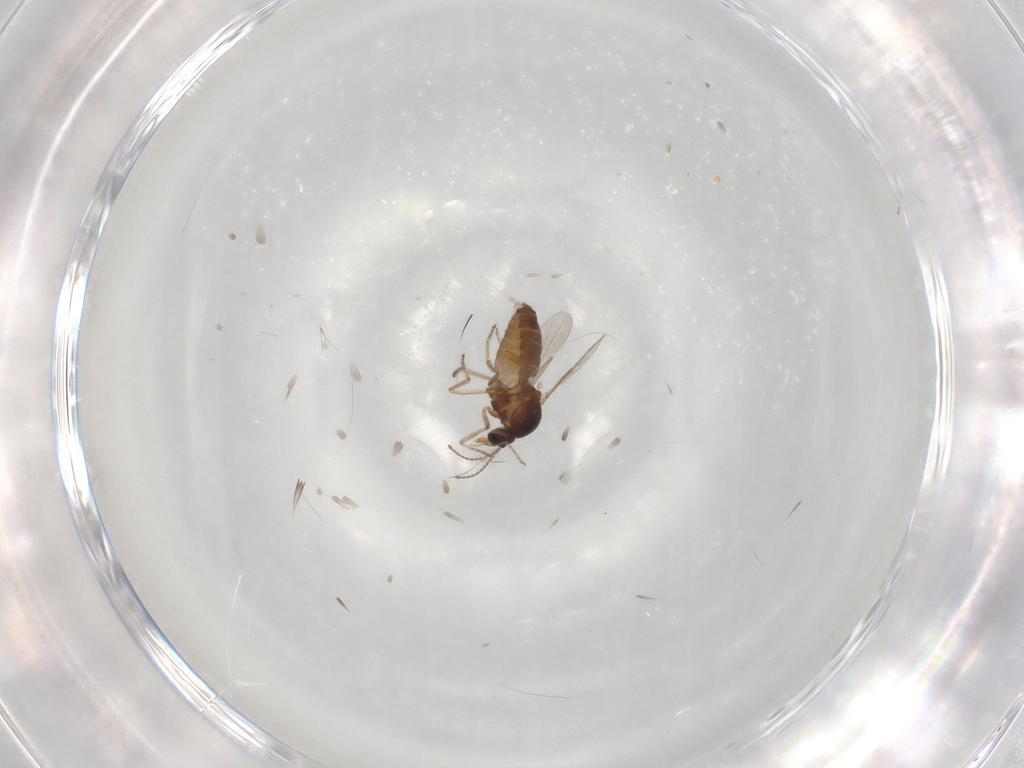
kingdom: Animalia
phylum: Arthropoda
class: Insecta
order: Diptera
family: Ceratopogonidae
